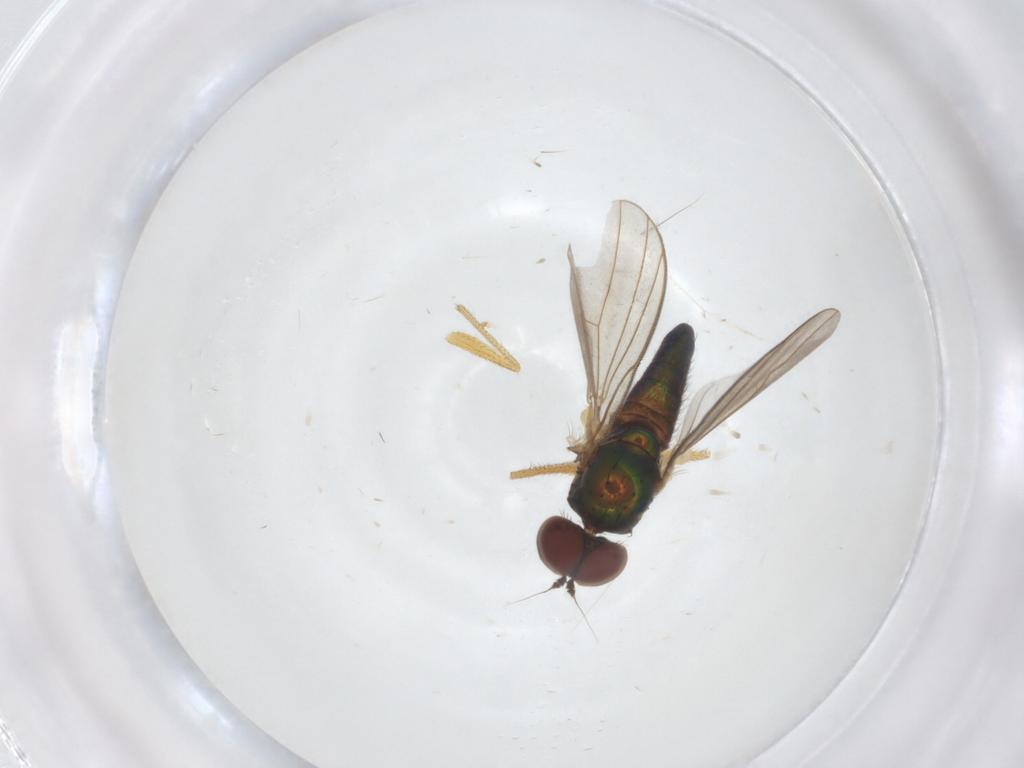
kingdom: Animalia
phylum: Arthropoda
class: Insecta
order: Diptera
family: Dolichopodidae
